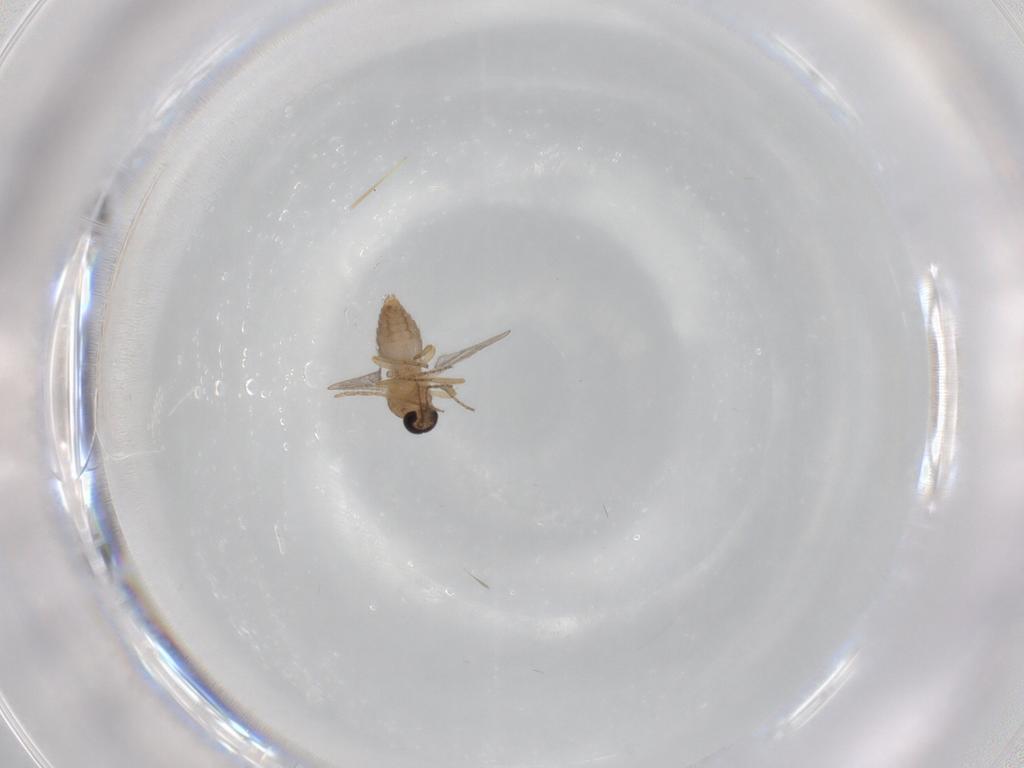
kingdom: Animalia
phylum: Arthropoda
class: Insecta
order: Diptera
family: Ceratopogonidae
